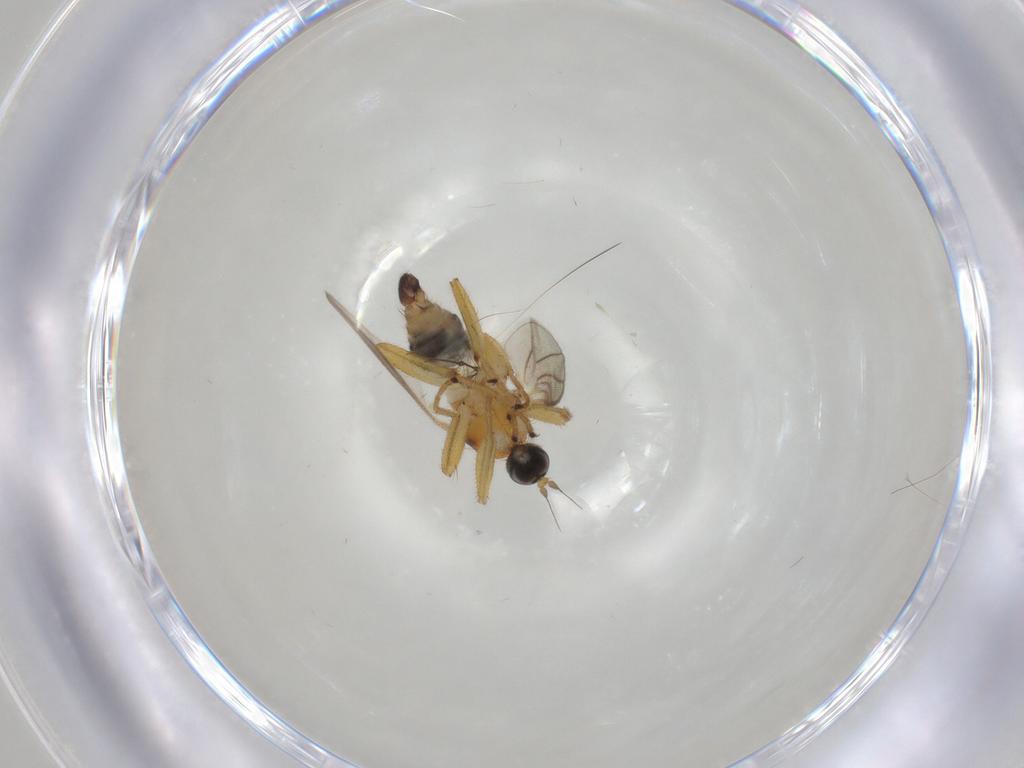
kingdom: Animalia
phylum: Arthropoda
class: Insecta
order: Diptera
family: Hybotidae
